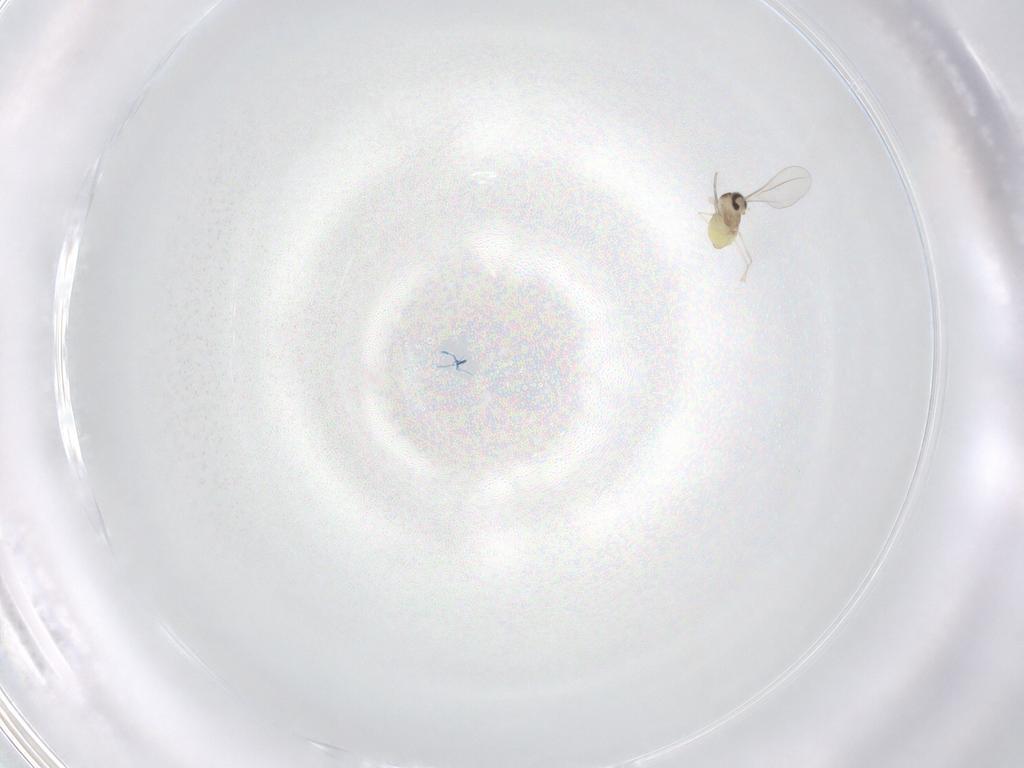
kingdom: Animalia
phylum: Arthropoda
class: Insecta
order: Diptera
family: Cecidomyiidae
